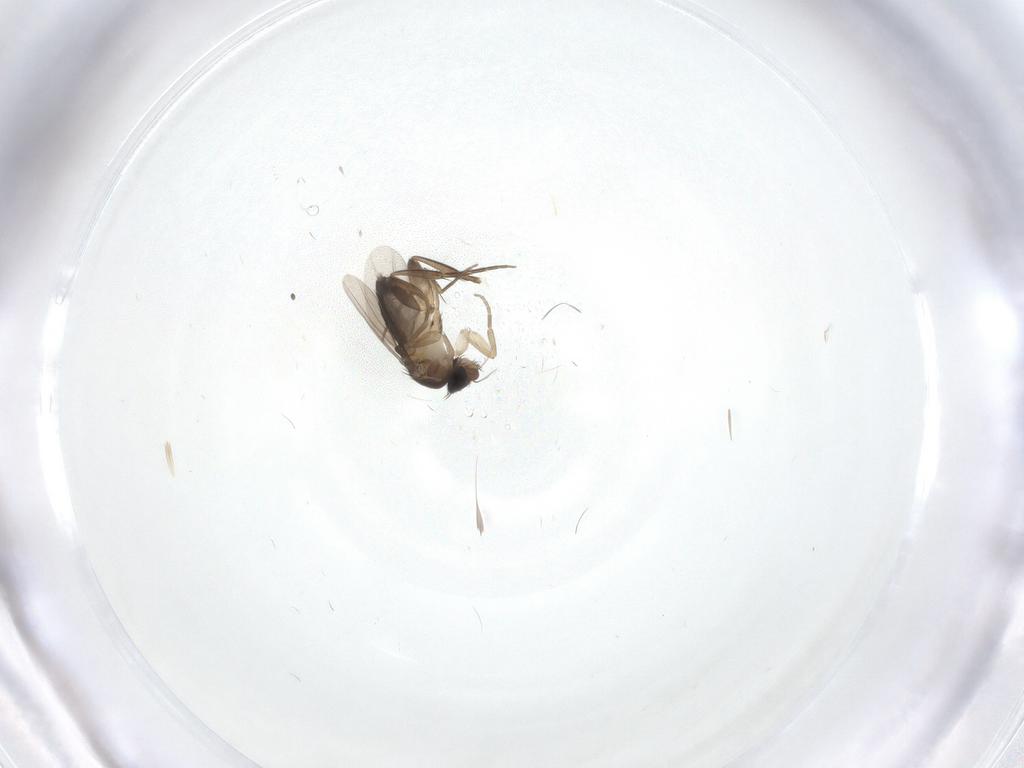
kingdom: Animalia
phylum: Arthropoda
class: Insecta
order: Diptera
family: Phoridae
